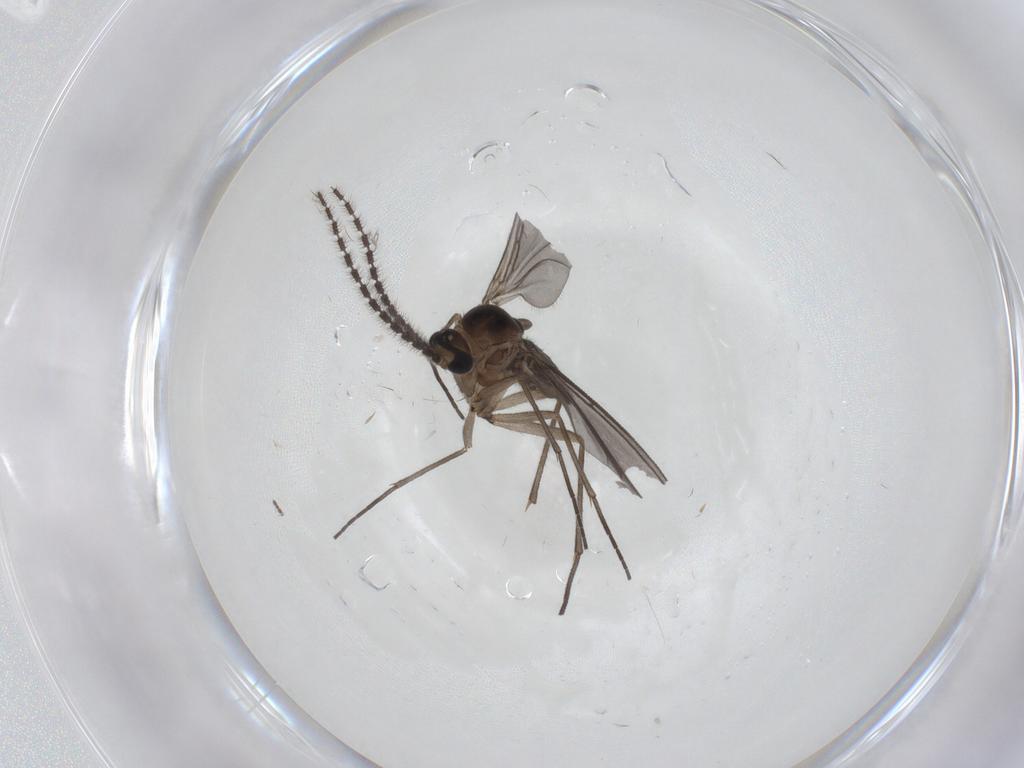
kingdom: Animalia
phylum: Arthropoda
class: Insecta
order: Diptera
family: Sciaridae
